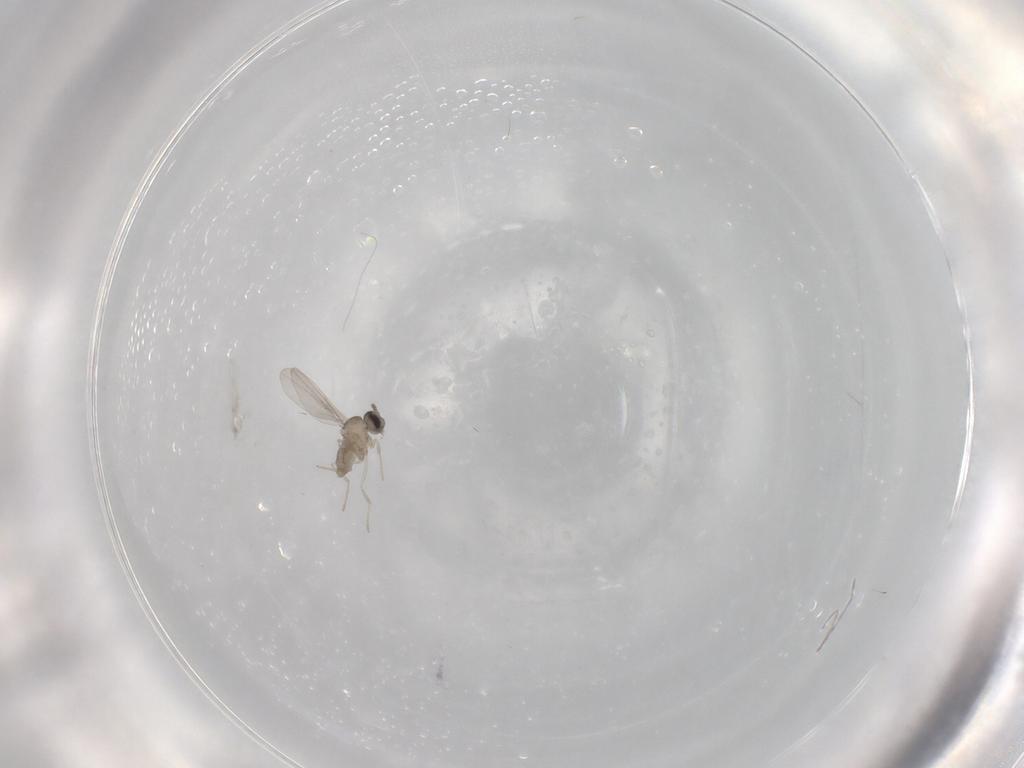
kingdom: Animalia
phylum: Arthropoda
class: Insecta
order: Diptera
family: Cecidomyiidae
